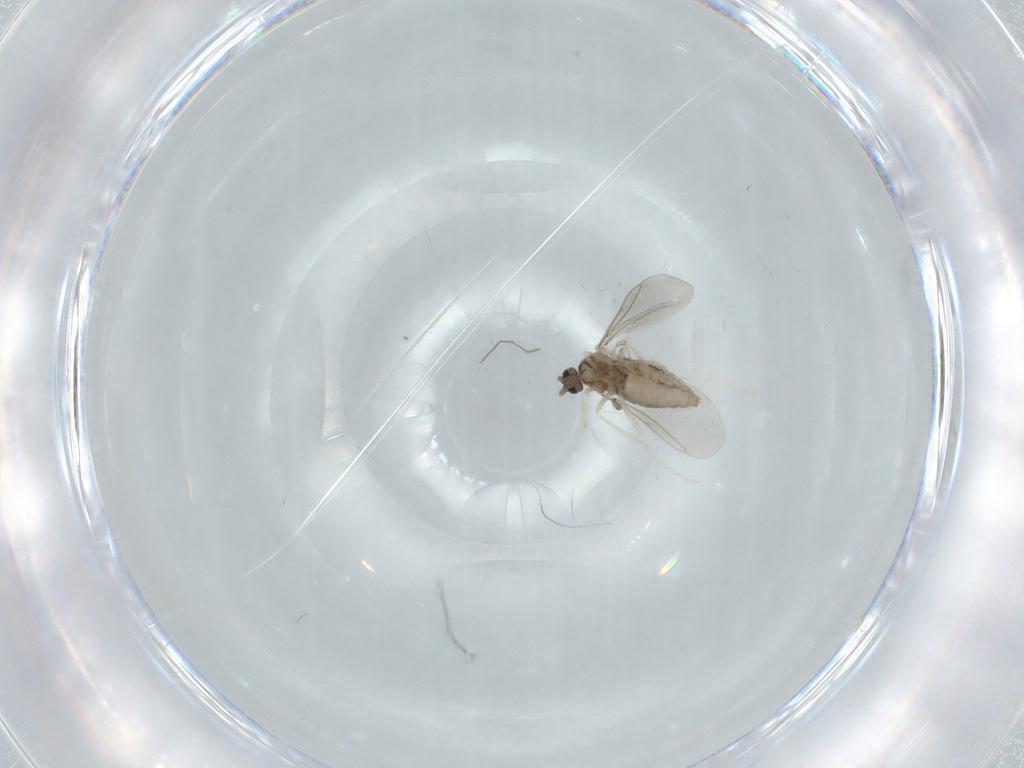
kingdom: Animalia
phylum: Arthropoda
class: Insecta
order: Diptera
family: Cecidomyiidae
